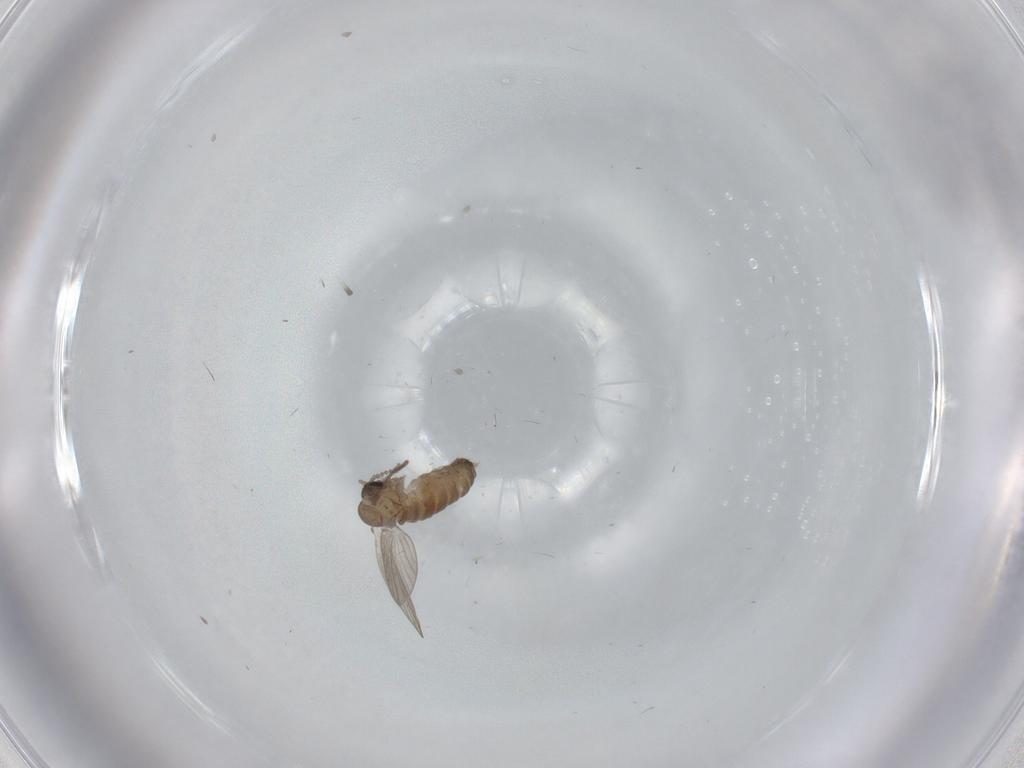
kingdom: Animalia
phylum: Arthropoda
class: Insecta
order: Diptera
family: Psychodidae
